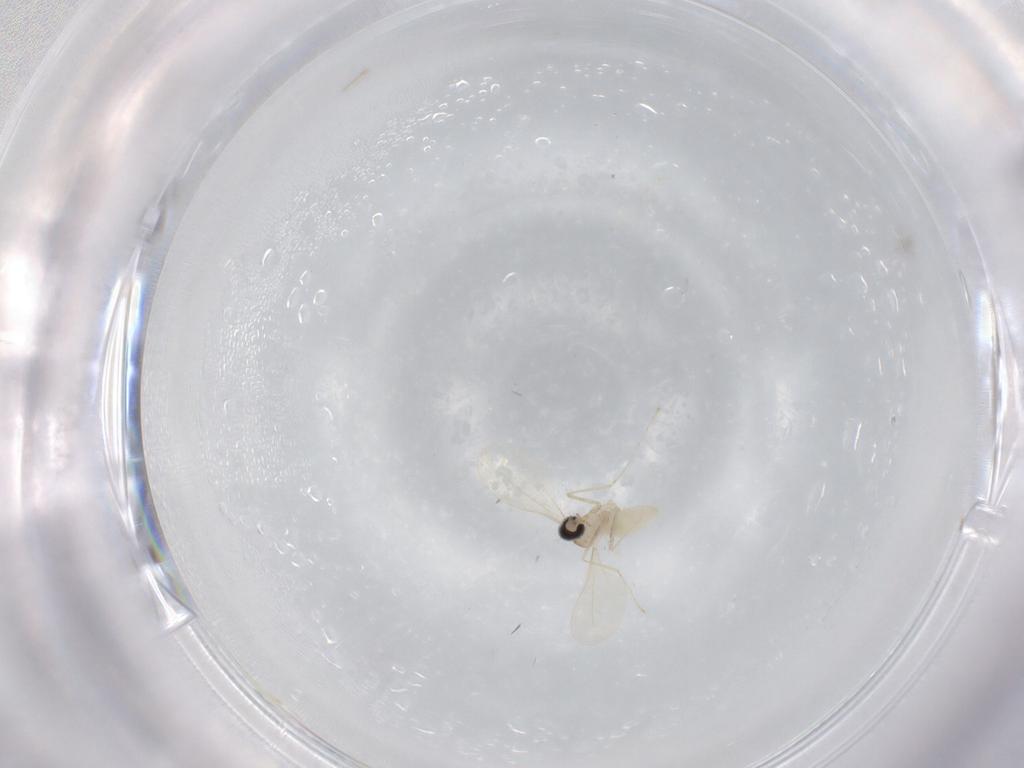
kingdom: Animalia
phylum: Arthropoda
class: Insecta
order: Diptera
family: Cecidomyiidae
